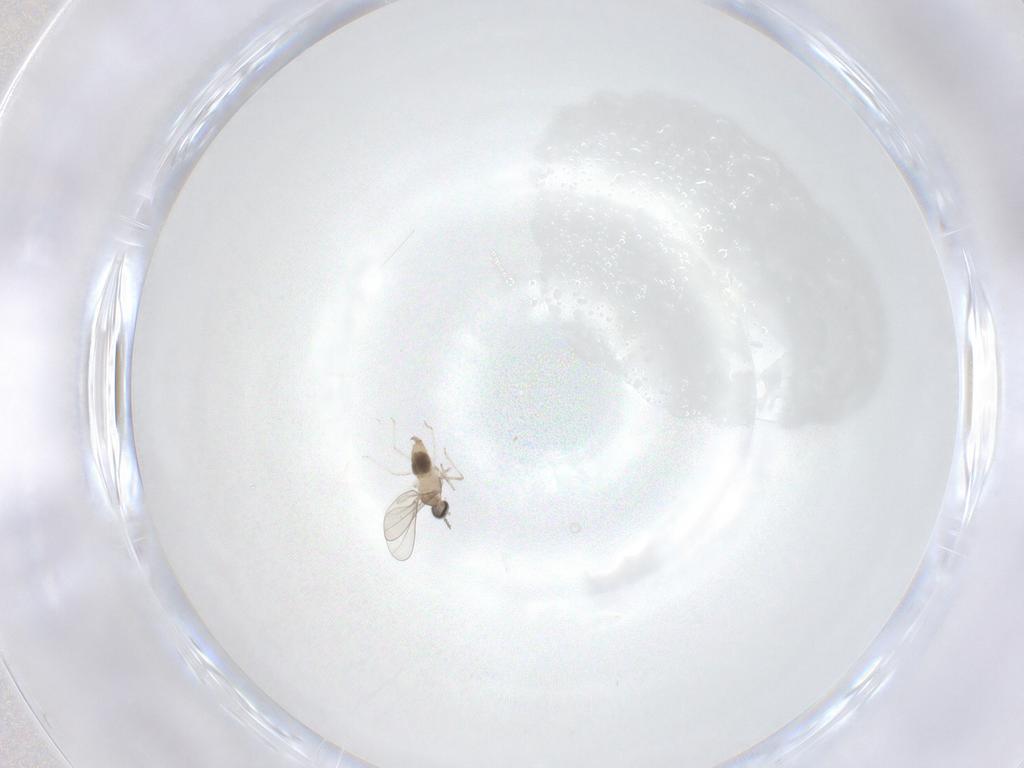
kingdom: Animalia
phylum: Arthropoda
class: Insecta
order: Diptera
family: Cecidomyiidae
